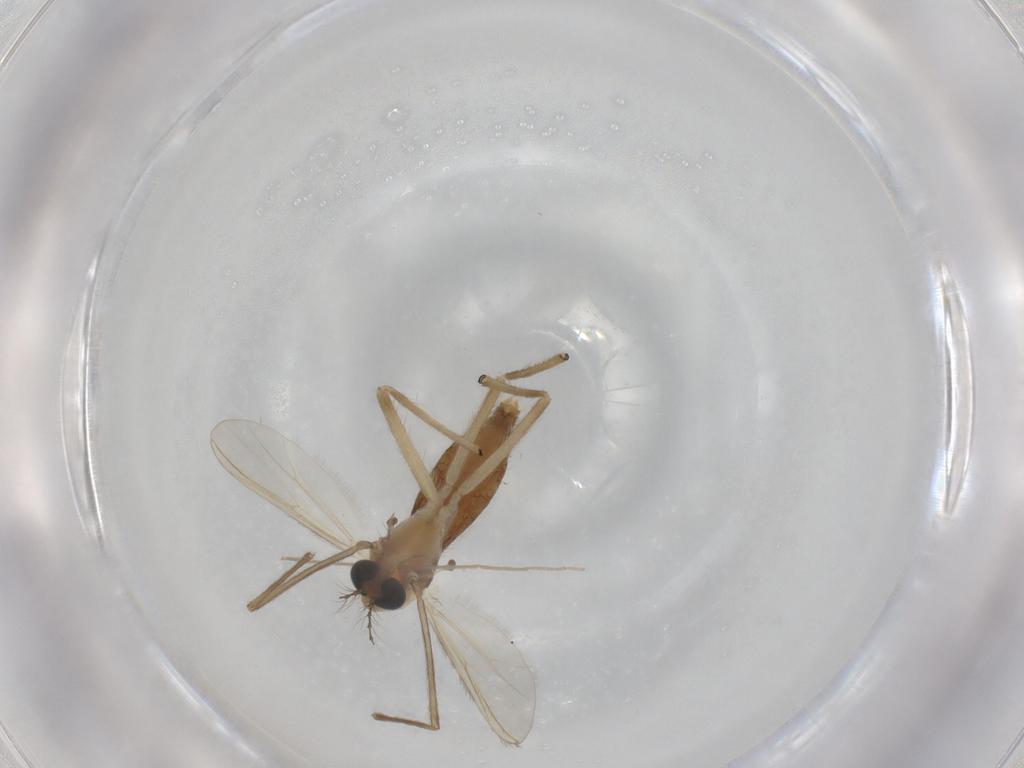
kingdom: Animalia
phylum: Arthropoda
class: Insecta
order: Diptera
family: Chironomidae
